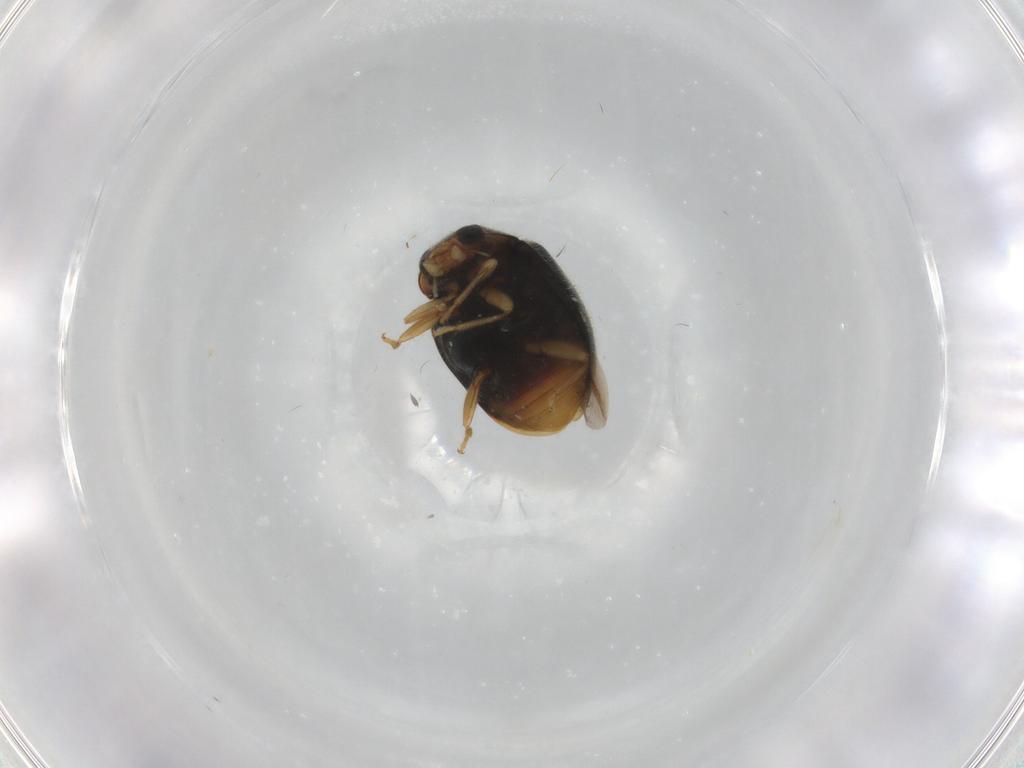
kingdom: Animalia
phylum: Arthropoda
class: Insecta
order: Coleoptera
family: Coccinellidae
